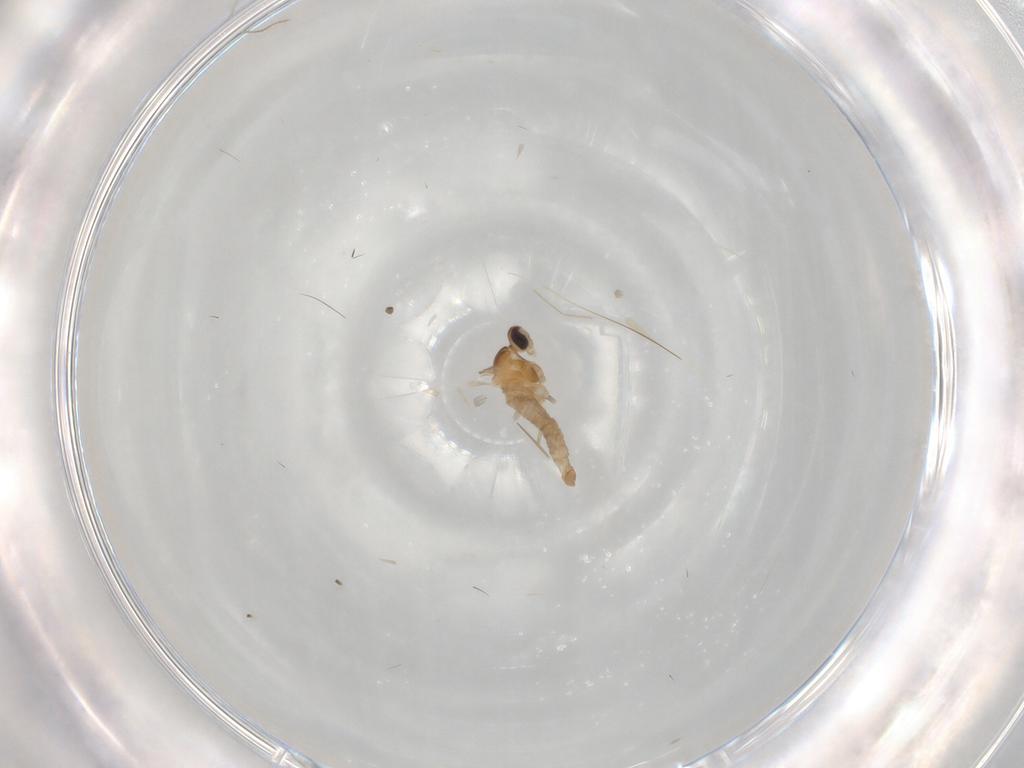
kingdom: Animalia
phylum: Arthropoda
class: Insecta
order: Diptera
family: Cecidomyiidae
